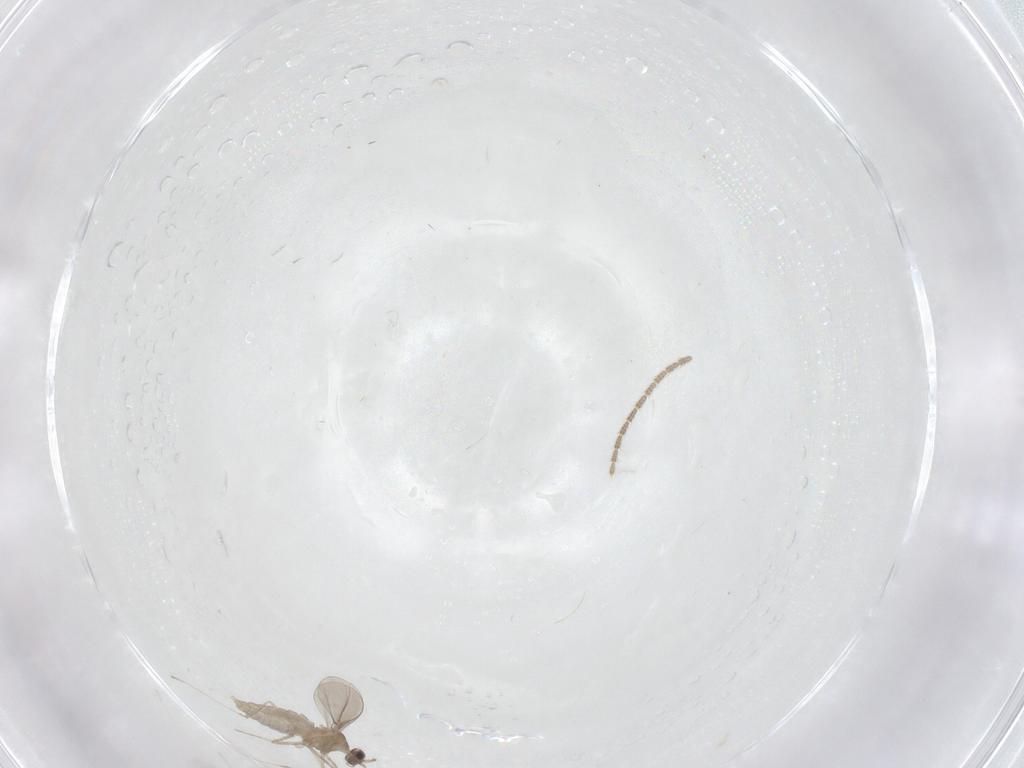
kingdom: Animalia
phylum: Arthropoda
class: Insecta
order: Diptera
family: Cecidomyiidae
